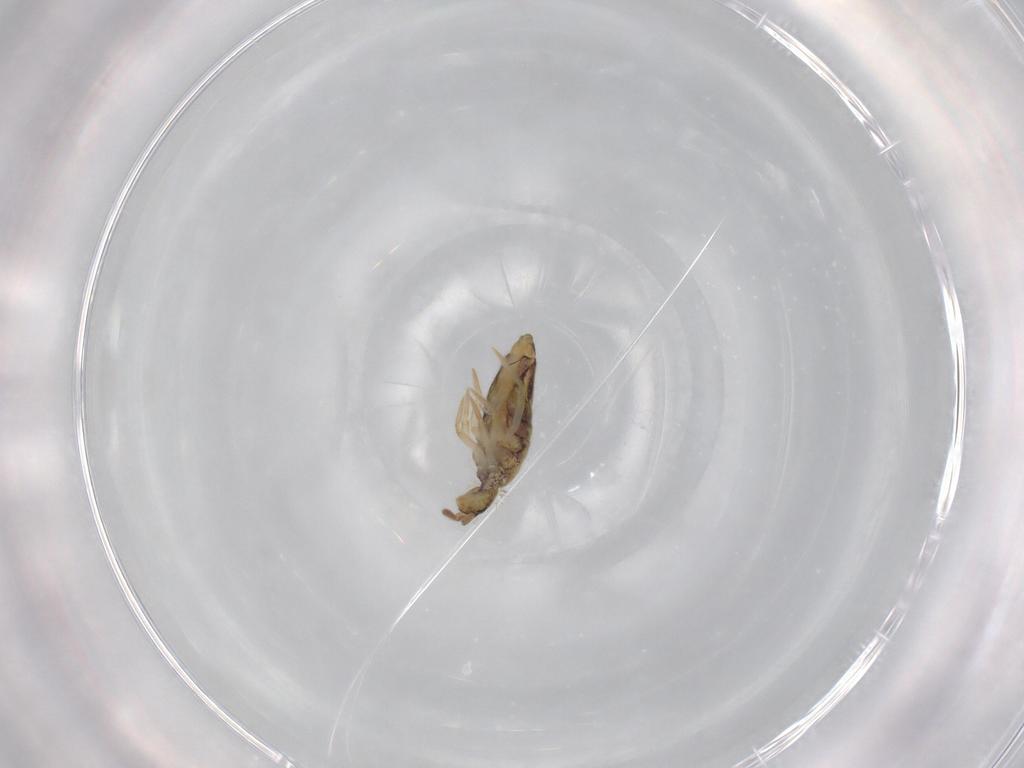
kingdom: Animalia
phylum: Arthropoda
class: Collembola
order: Entomobryomorpha
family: Entomobryidae
